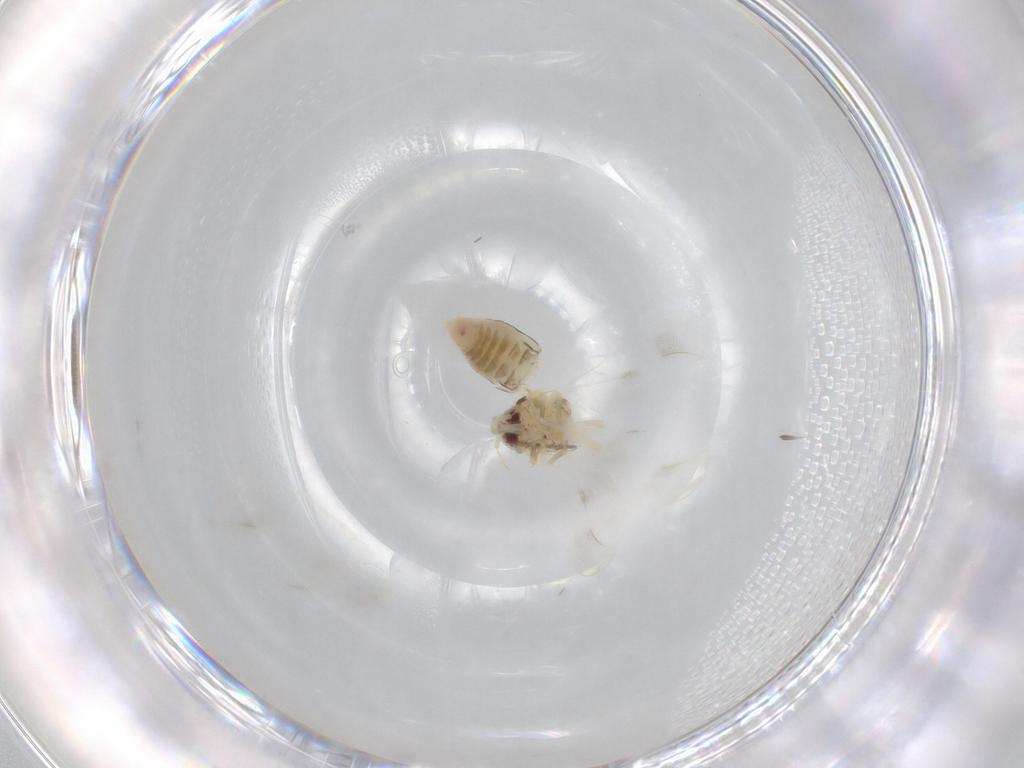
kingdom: Animalia
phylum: Arthropoda
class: Insecta
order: Hemiptera
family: Aleyrodidae
